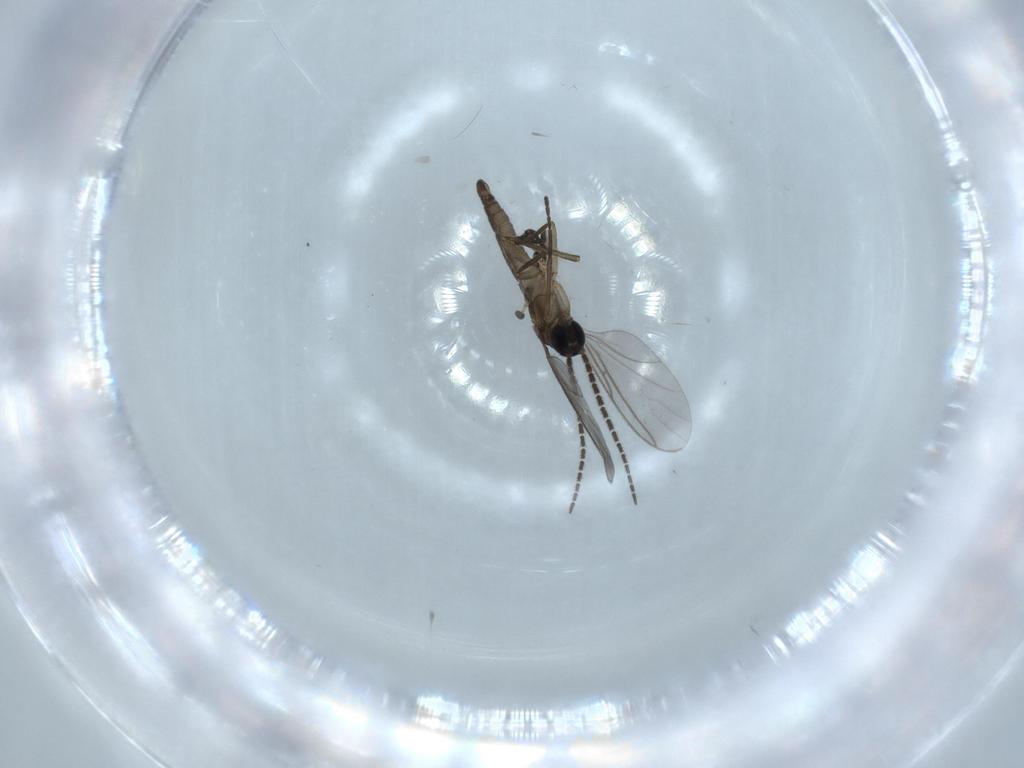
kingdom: Animalia
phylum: Arthropoda
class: Insecta
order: Diptera
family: Sciaridae
